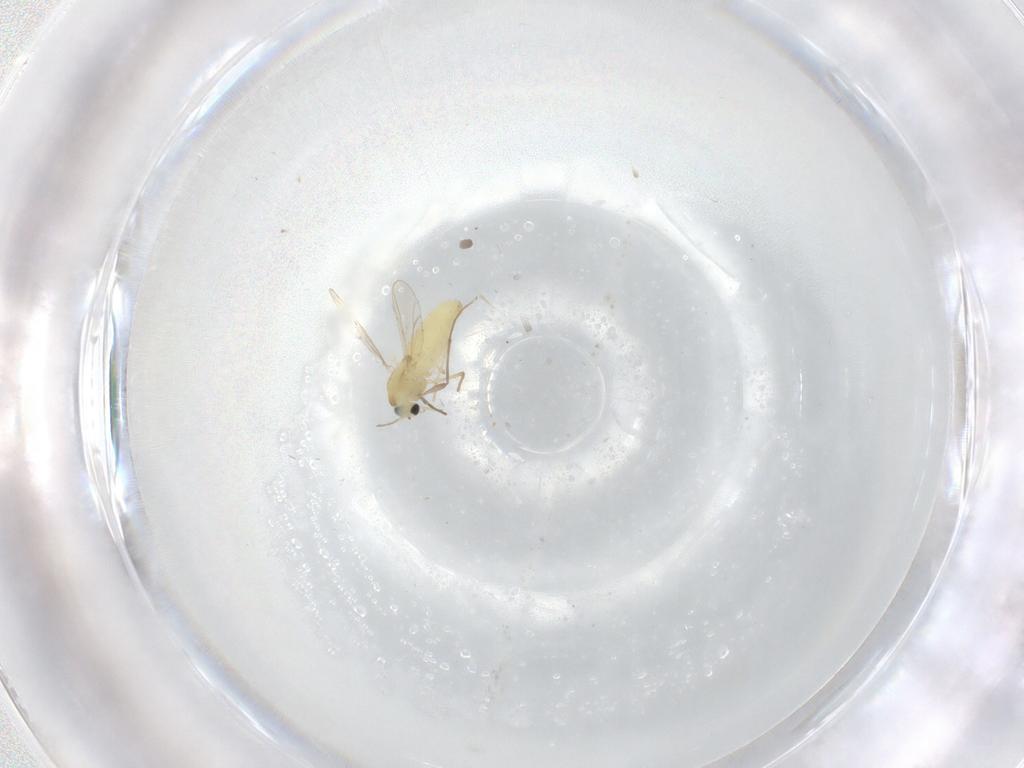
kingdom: Animalia
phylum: Arthropoda
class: Insecta
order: Diptera
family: Chironomidae
